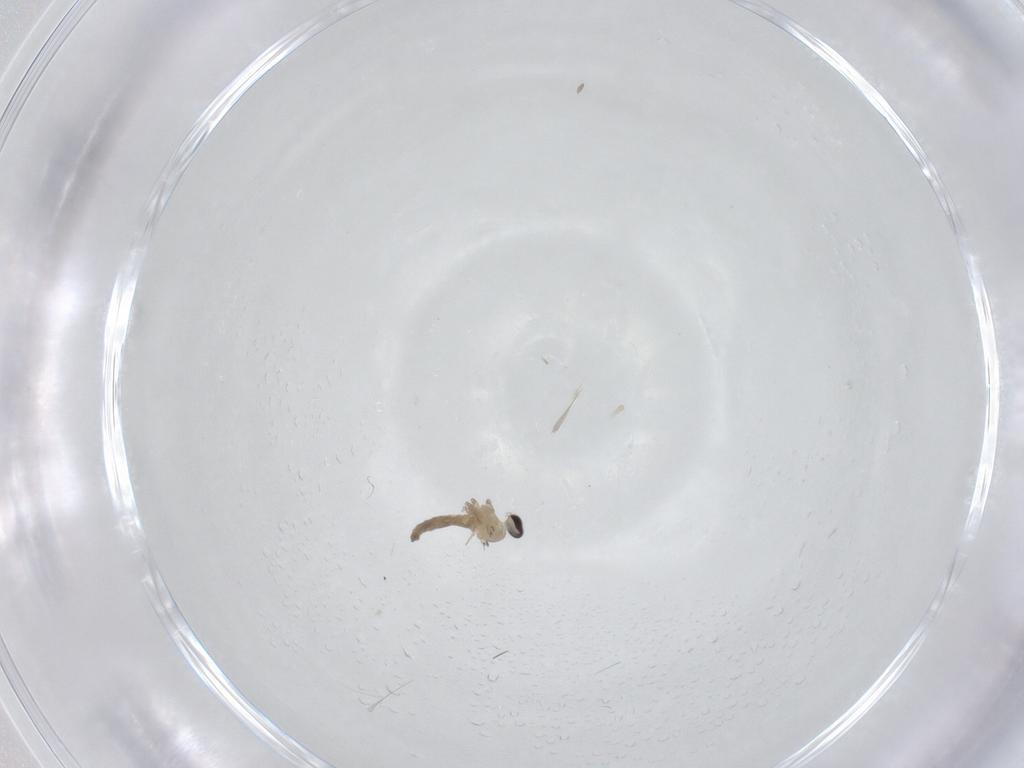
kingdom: Animalia
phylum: Arthropoda
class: Insecta
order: Diptera
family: Cecidomyiidae
